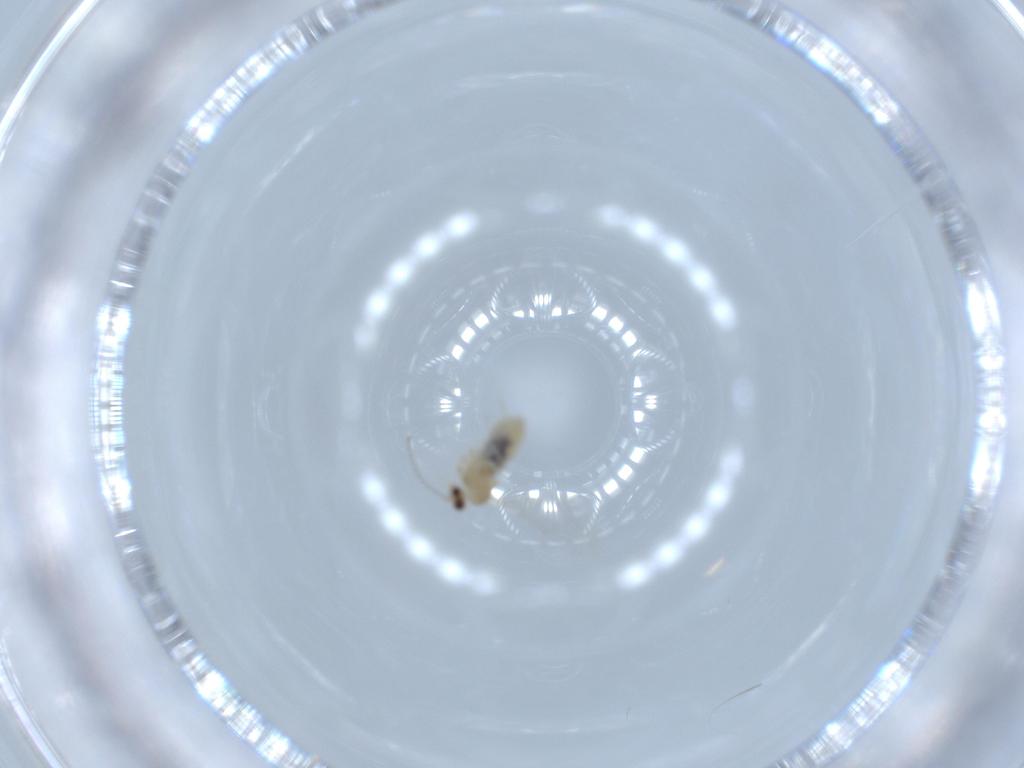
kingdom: Animalia
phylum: Arthropoda
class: Insecta
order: Diptera
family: Cecidomyiidae
